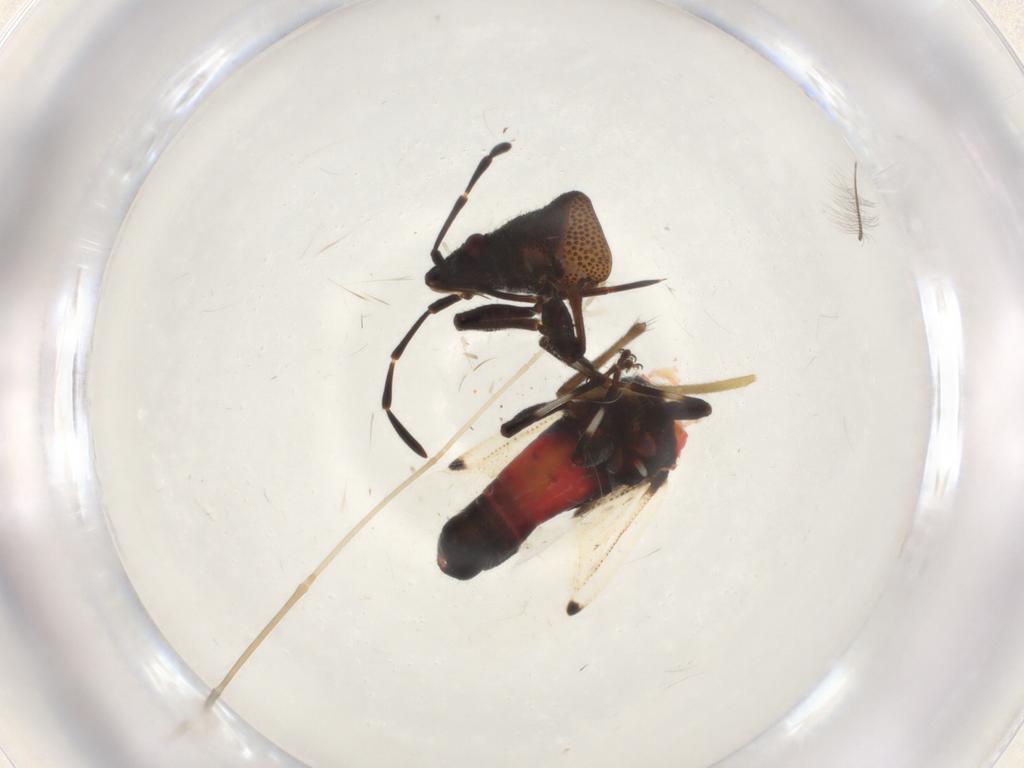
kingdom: Animalia
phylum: Arthropoda
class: Insecta
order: Hemiptera
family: Oxycarenidae
